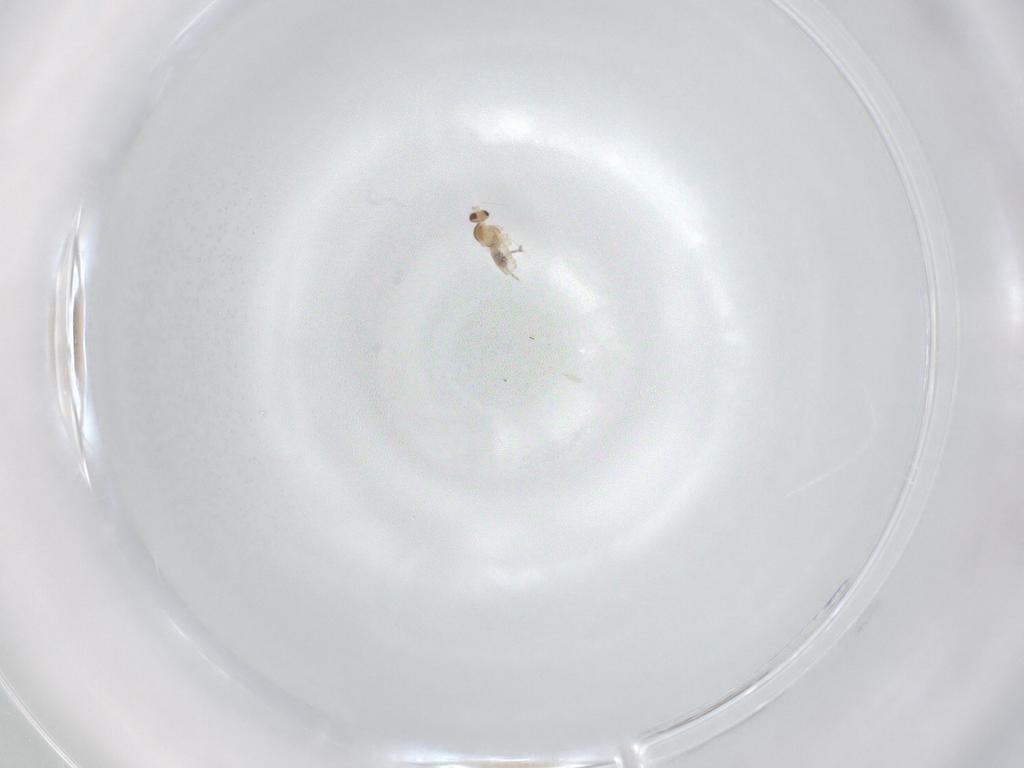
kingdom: Animalia
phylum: Arthropoda
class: Insecta
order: Diptera
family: Cecidomyiidae
